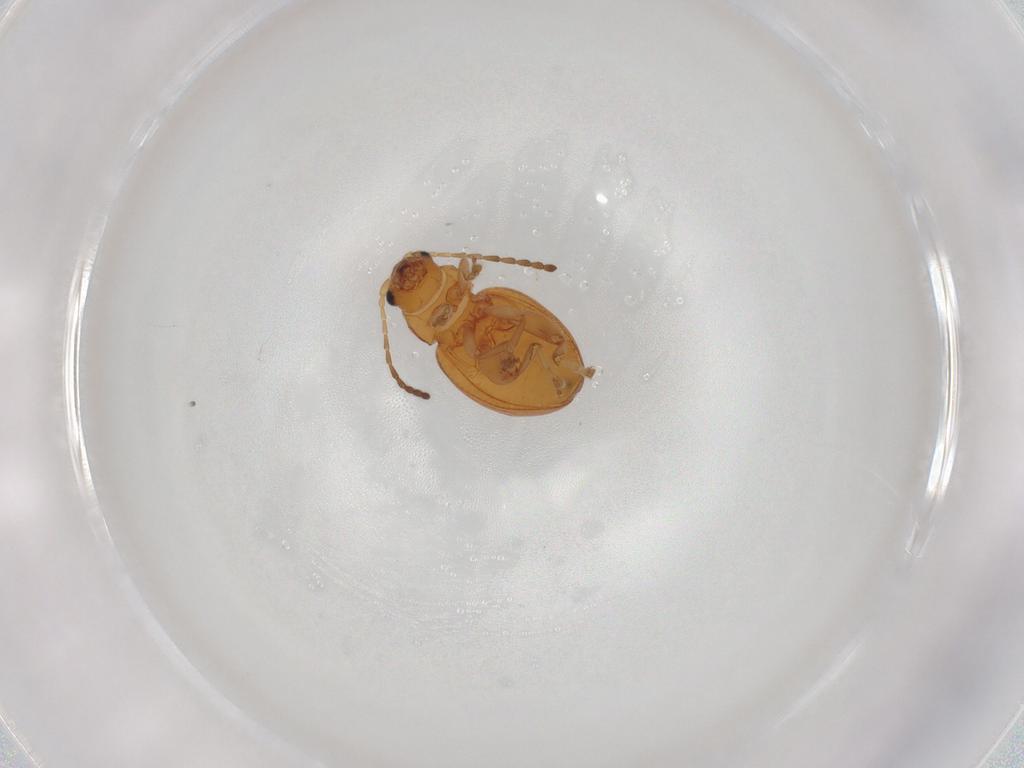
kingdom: Animalia
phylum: Arthropoda
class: Insecta
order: Coleoptera
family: Chrysomelidae
